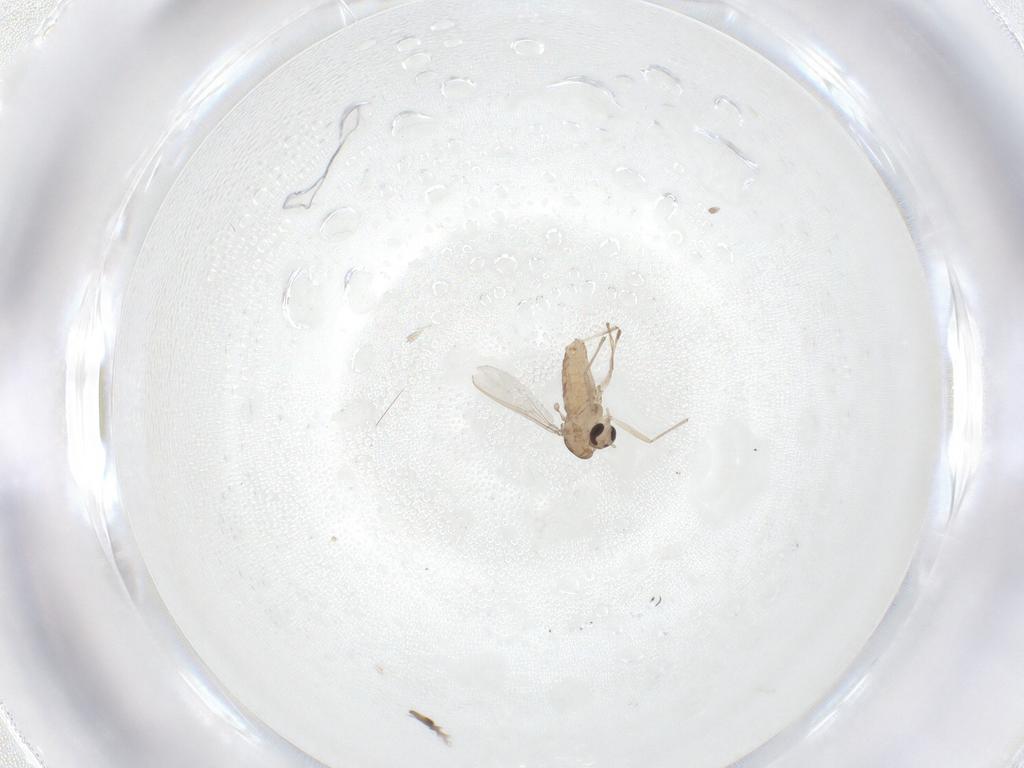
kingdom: Animalia
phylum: Arthropoda
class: Insecta
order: Diptera
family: Chironomidae
